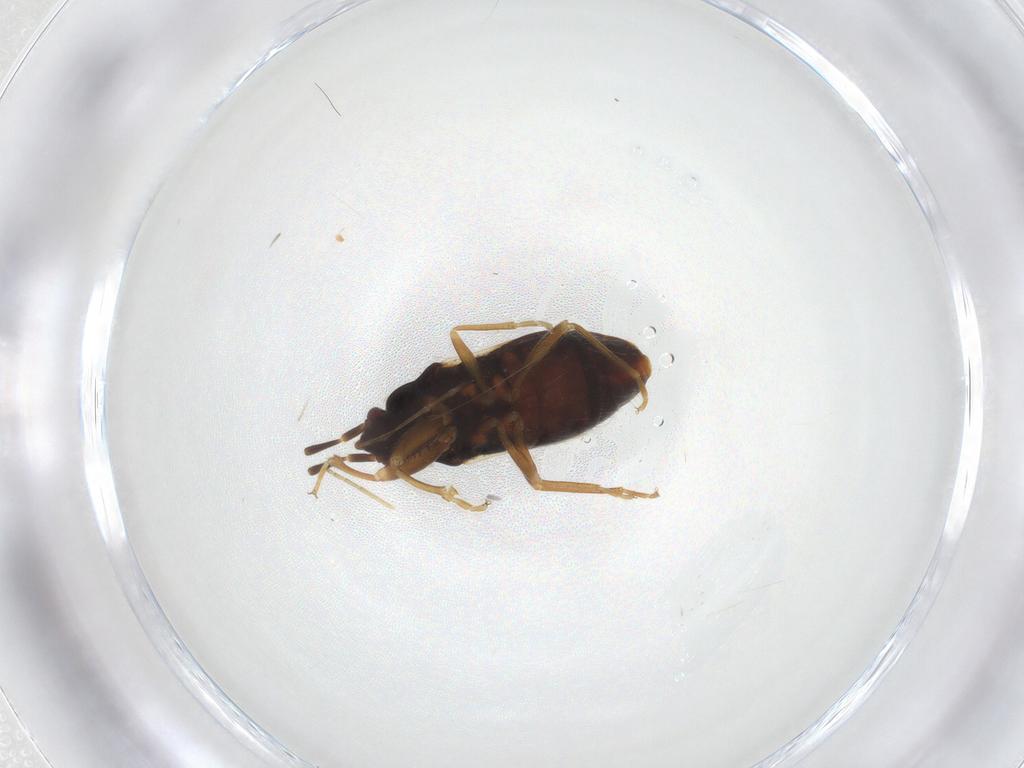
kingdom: Animalia
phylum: Arthropoda
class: Insecta
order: Hemiptera
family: Rhyparochromidae
